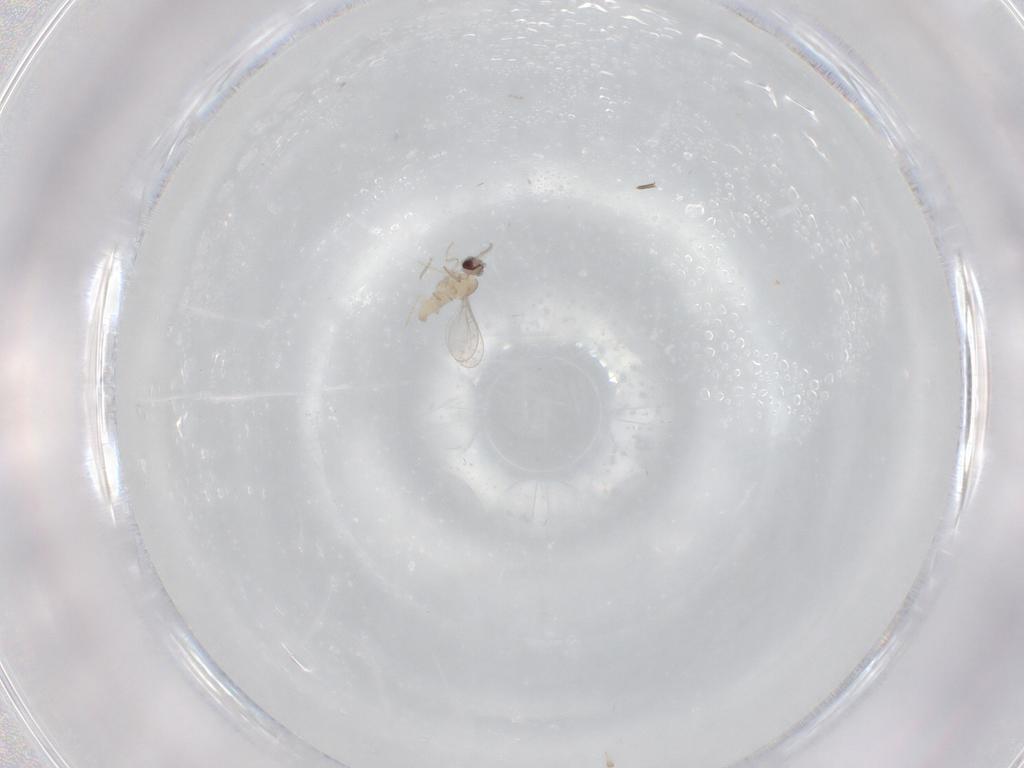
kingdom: Animalia
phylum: Arthropoda
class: Insecta
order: Diptera
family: Cecidomyiidae
